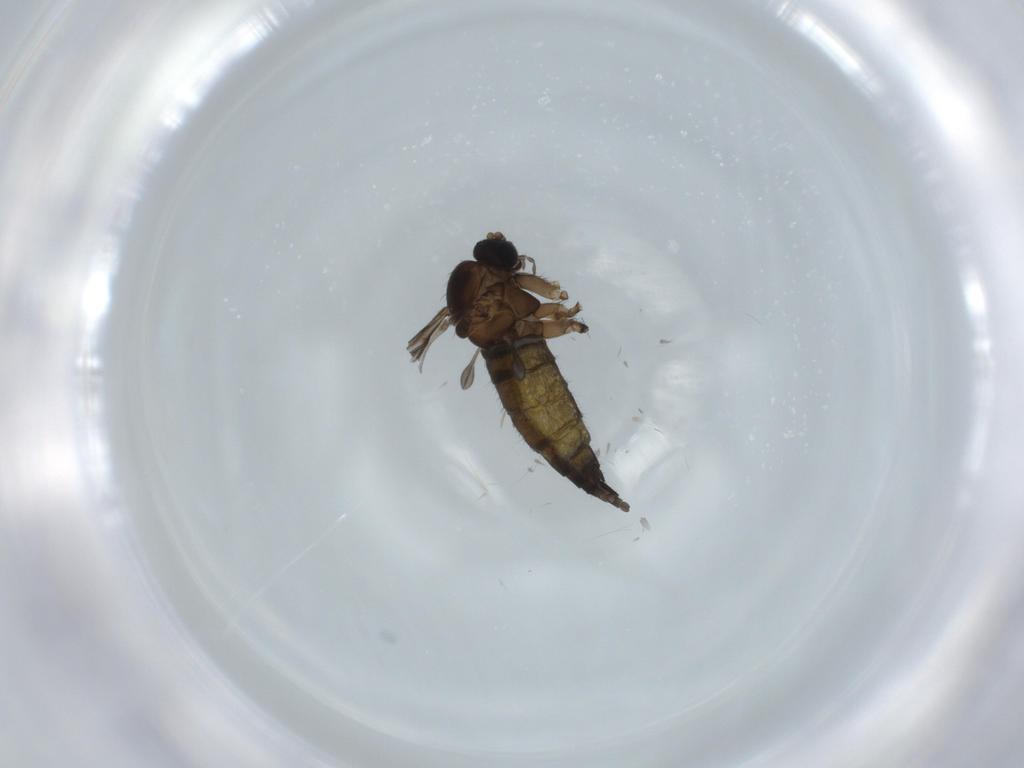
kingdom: Animalia
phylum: Arthropoda
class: Insecta
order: Diptera
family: Sciaridae
